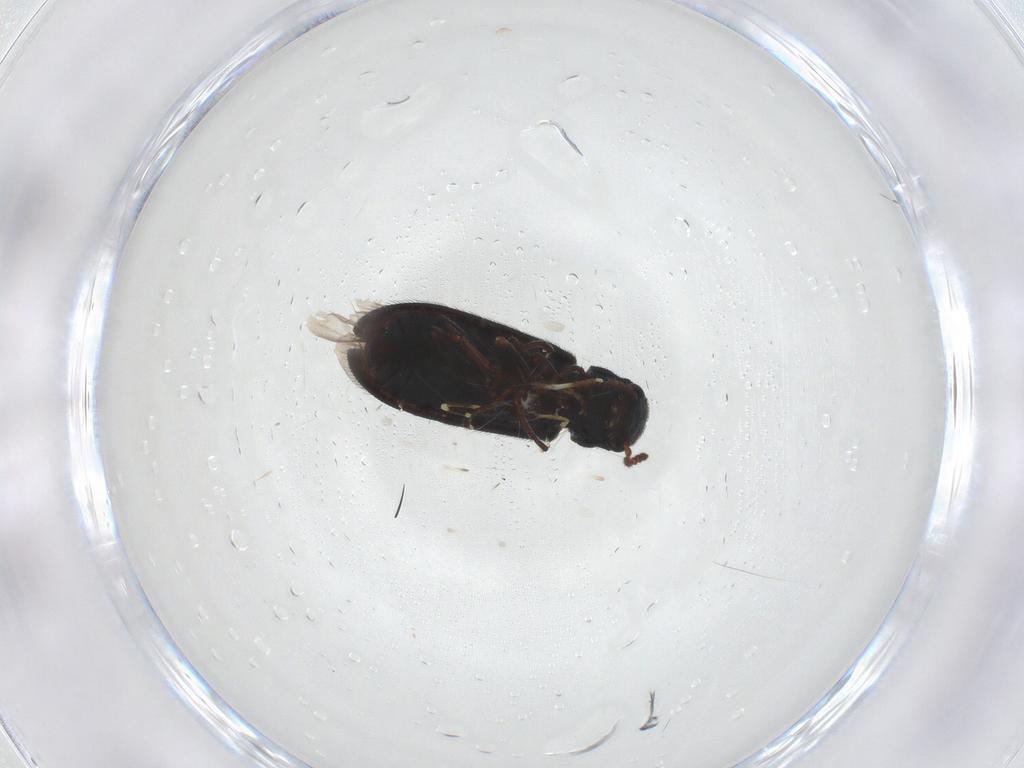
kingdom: Animalia
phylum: Arthropoda
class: Insecta
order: Coleoptera
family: Melyridae
